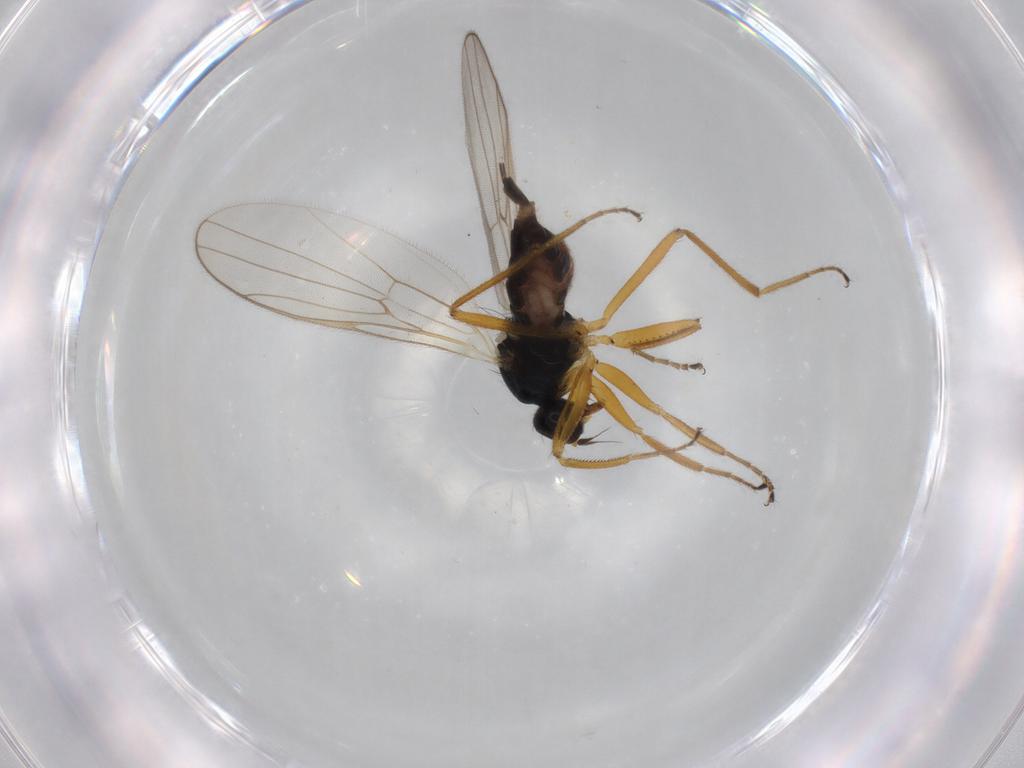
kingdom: Animalia
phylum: Arthropoda
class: Insecta
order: Diptera
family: Hybotidae
